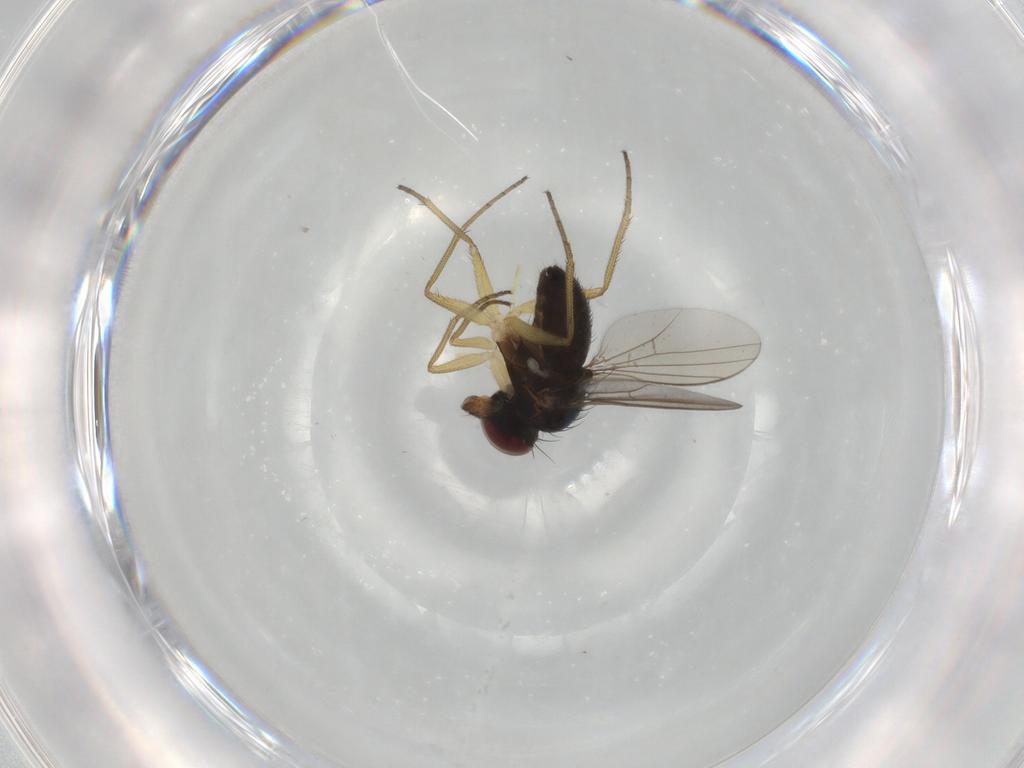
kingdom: Animalia
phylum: Arthropoda
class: Insecta
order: Diptera
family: Dolichopodidae
